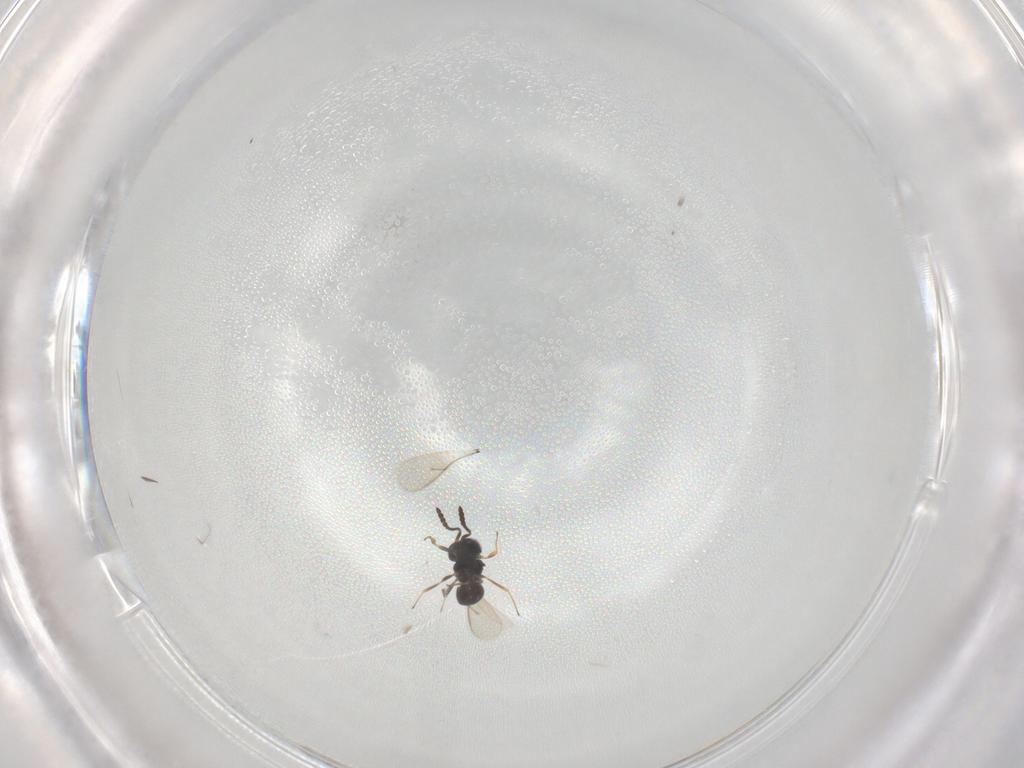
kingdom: Animalia
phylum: Arthropoda
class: Insecta
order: Hymenoptera
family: Scelionidae
